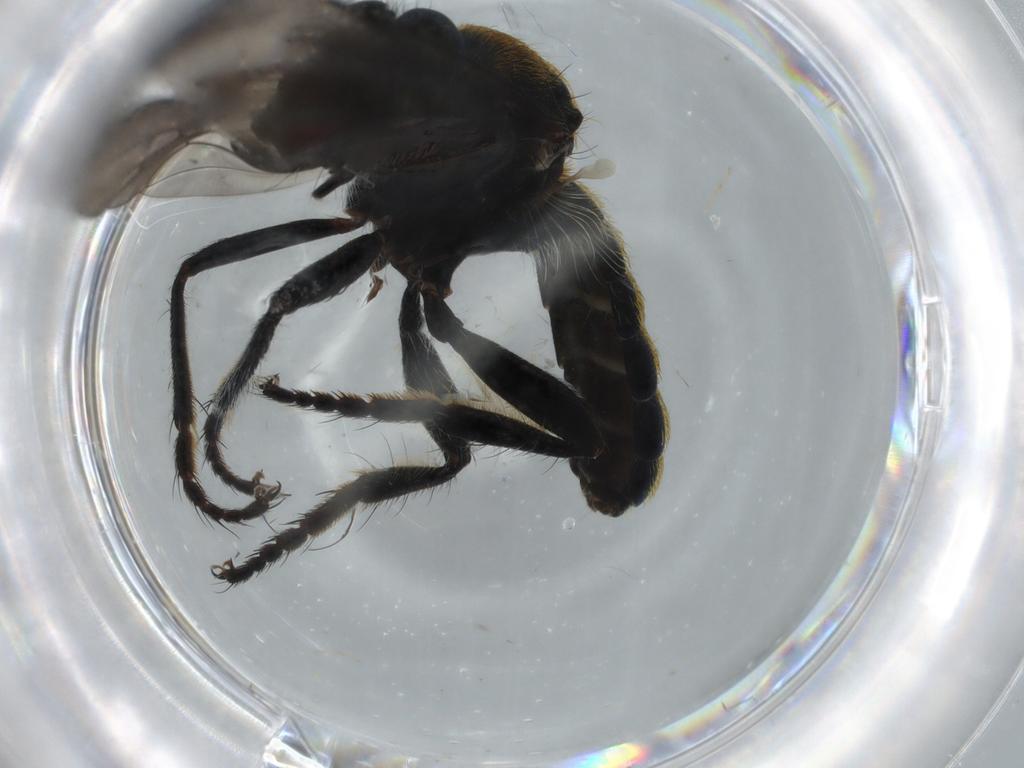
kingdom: Animalia
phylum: Arthropoda
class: Insecta
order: Diptera
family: Asilidae
